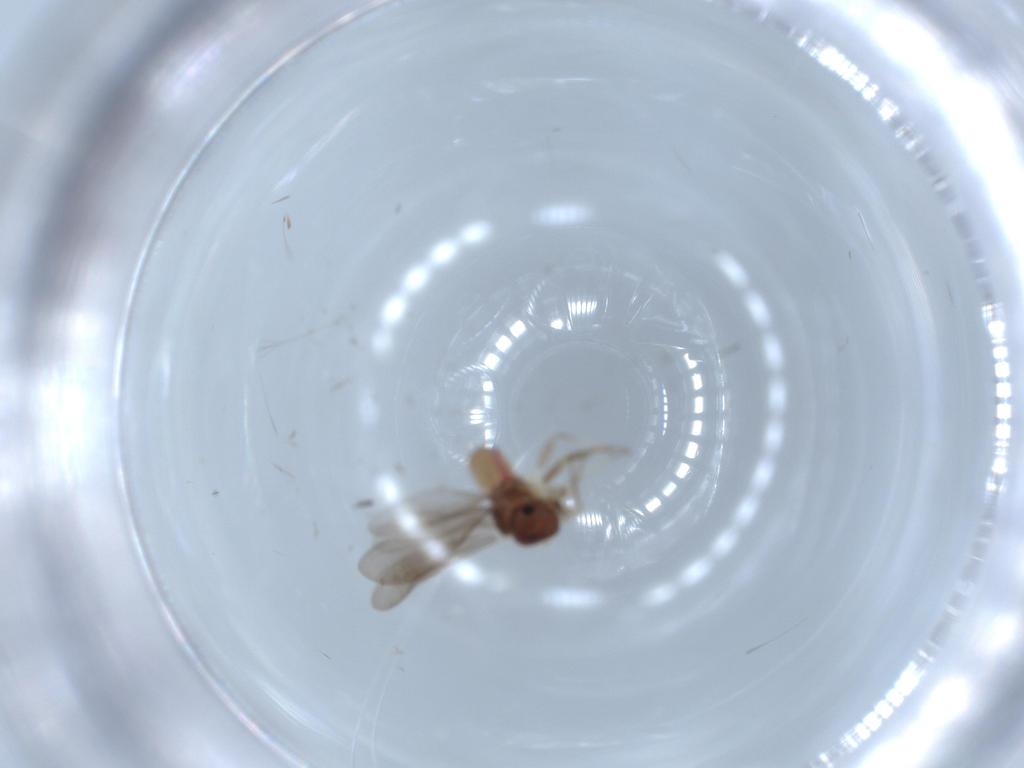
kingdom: Animalia
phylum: Arthropoda
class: Insecta
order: Psocodea
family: Asiopsocidae
